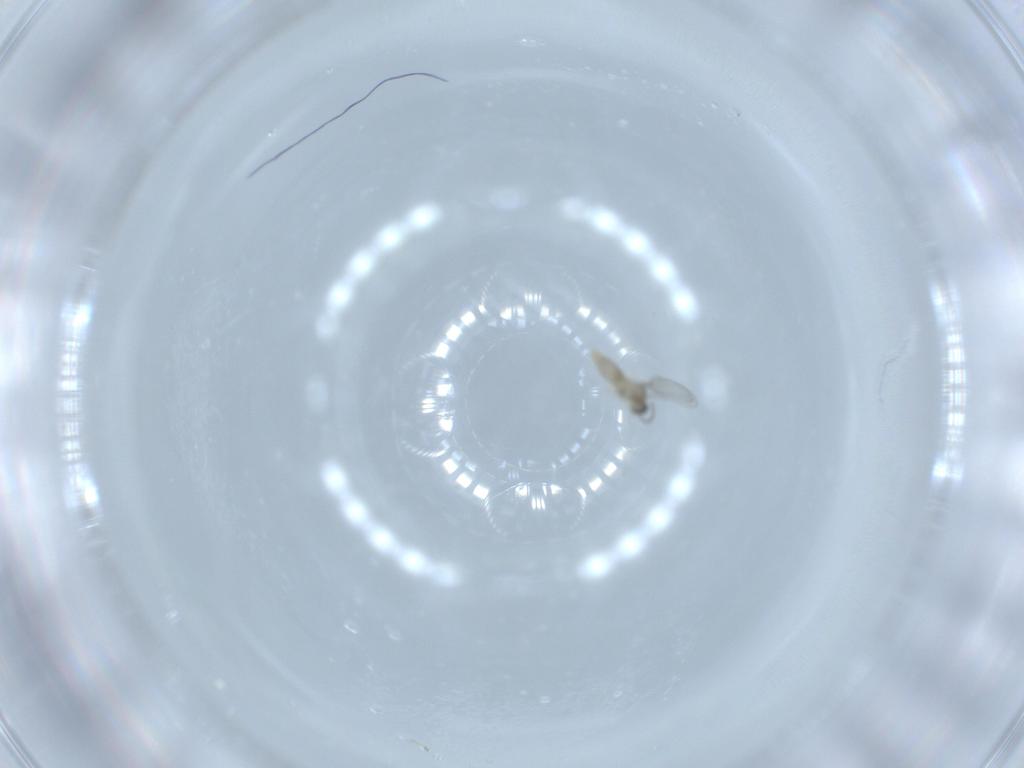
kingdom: Animalia
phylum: Arthropoda
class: Insecta
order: Diptera
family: Cecidomyiidae
